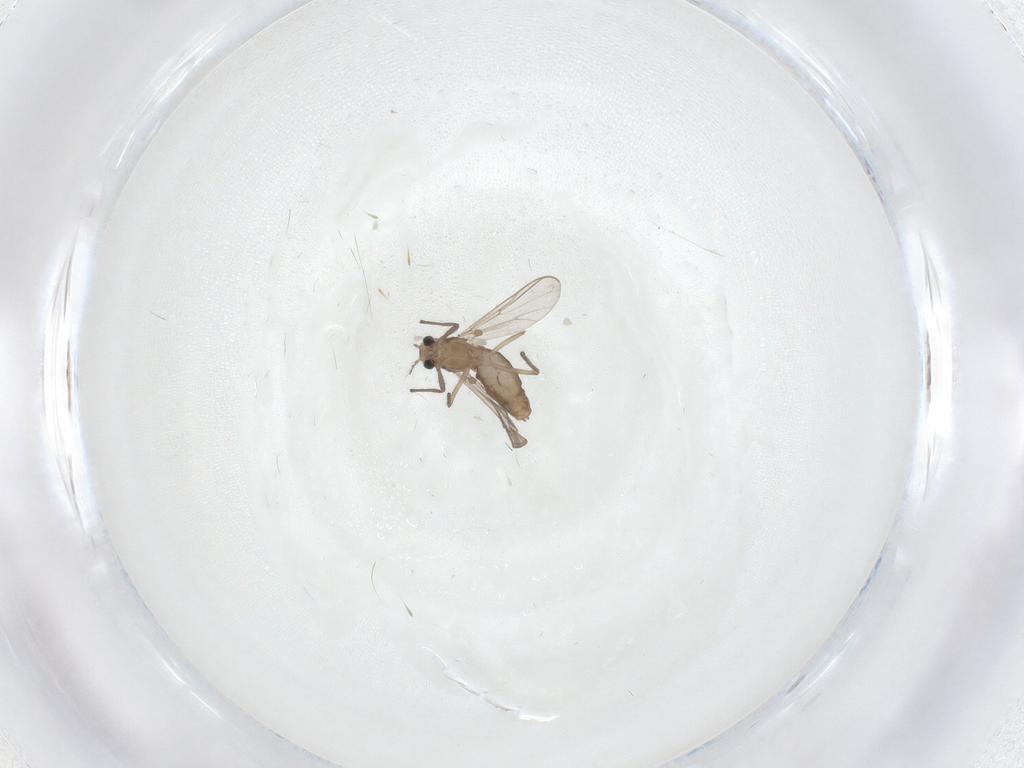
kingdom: Animalia
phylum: Arthropoda
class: Insecta
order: Diptera
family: Chironomidae
